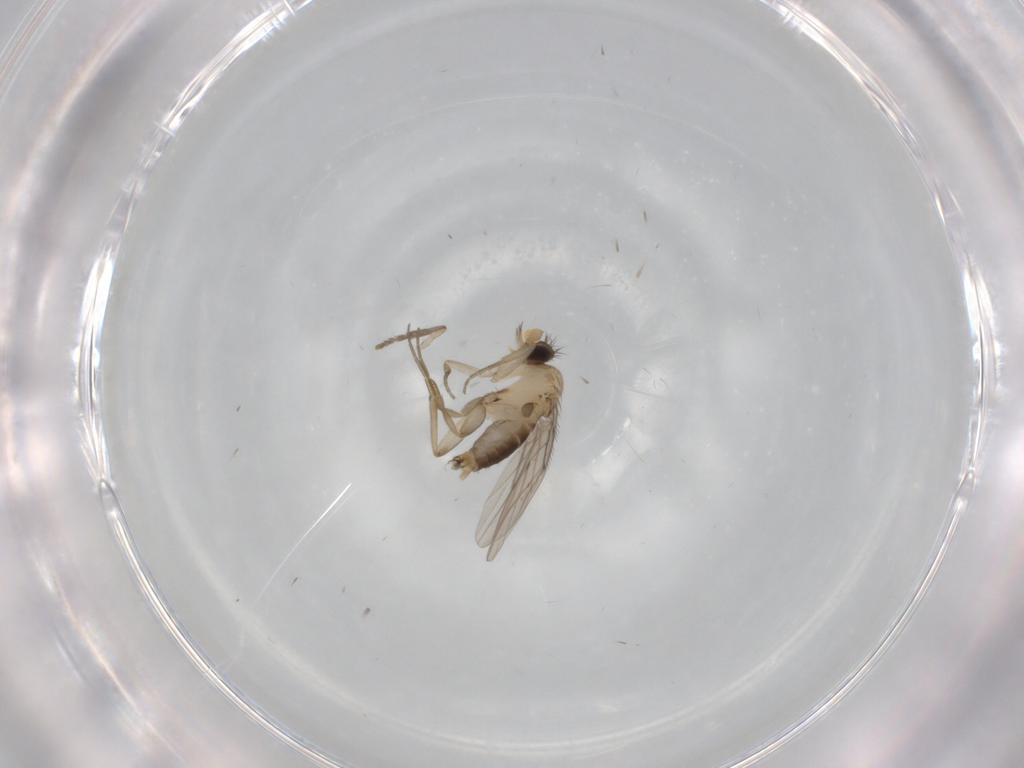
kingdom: Animalia
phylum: Arthropoda
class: Insecta
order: Diptera
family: Phoridae
